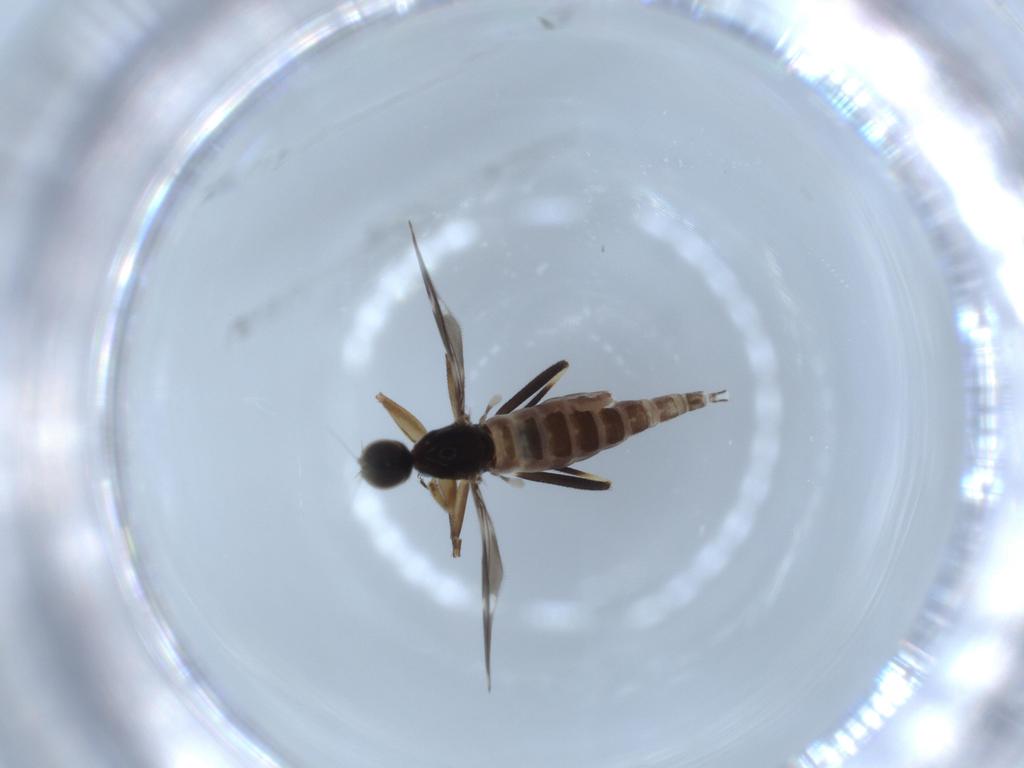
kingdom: Animalia
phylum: Arthropoda
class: Insecta
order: Diptera
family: Hybotidae
